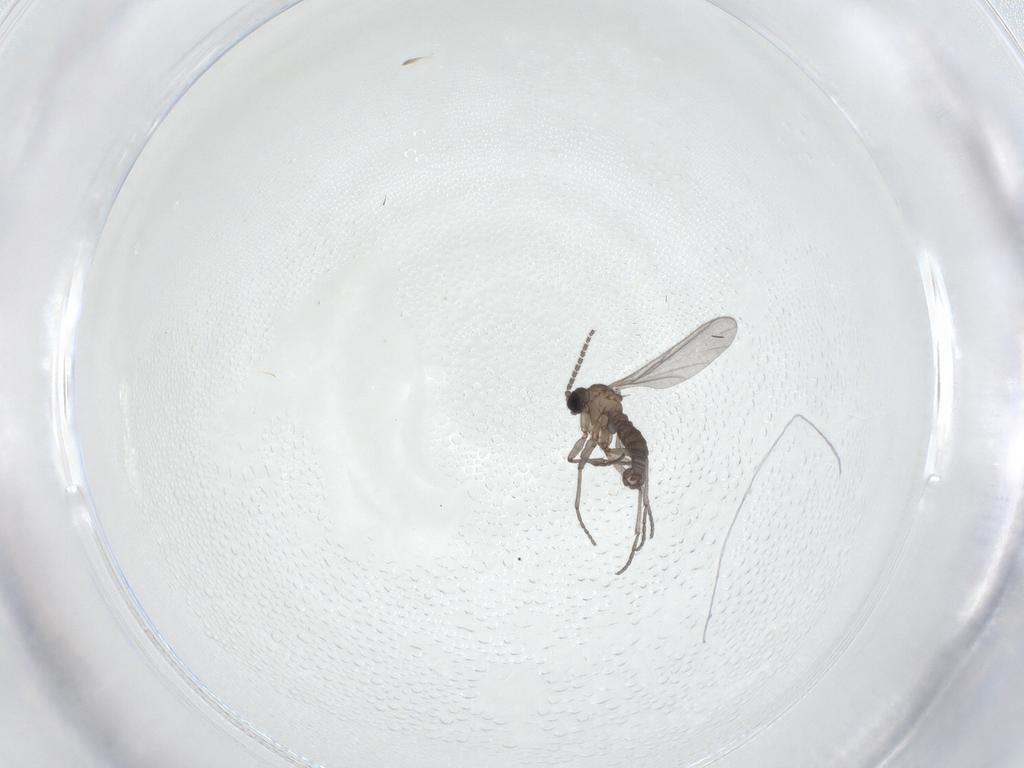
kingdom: Animalia
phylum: Arthropoda
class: Insecta
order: Diptera
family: Sciaridae
